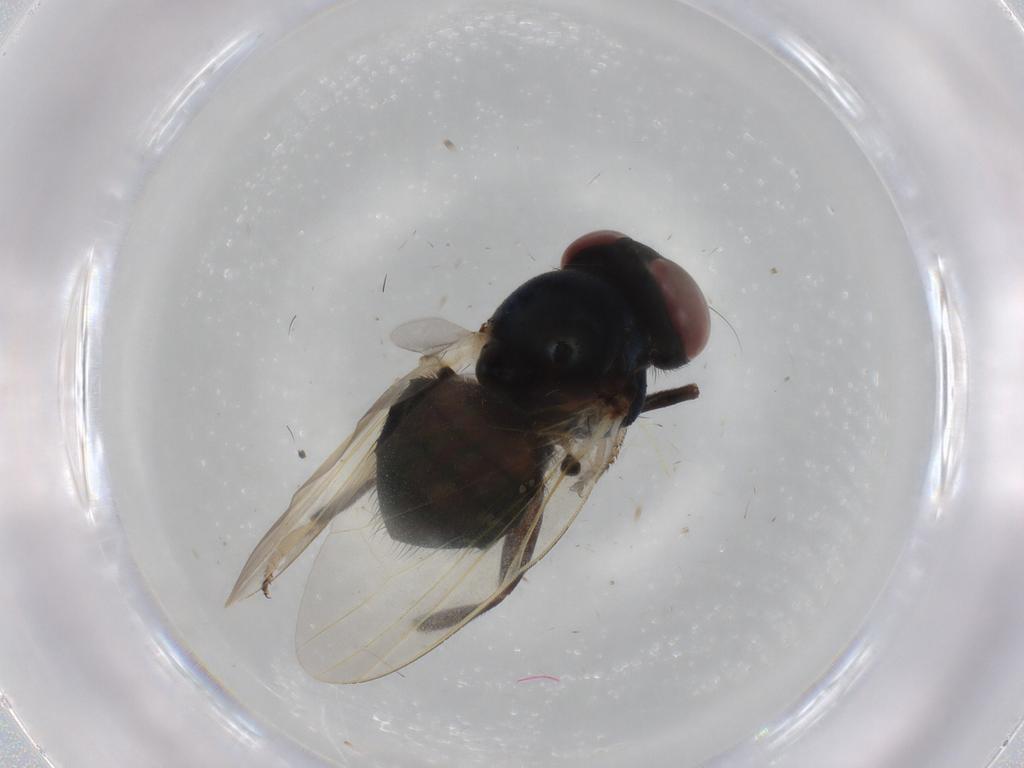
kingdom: Animalia
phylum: Arthropoda
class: Insecta
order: Diptera
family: Lonchaeidae
